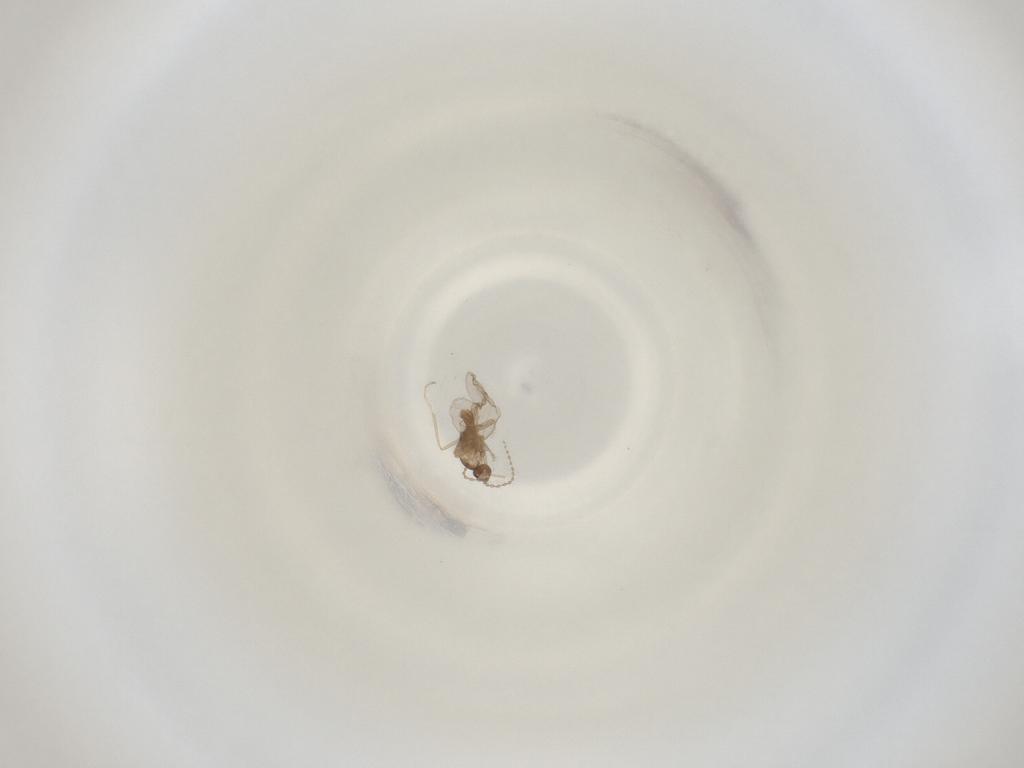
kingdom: Animalia
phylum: Arthropoda
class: Insecta
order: Diptera
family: Cecidomyiidae
